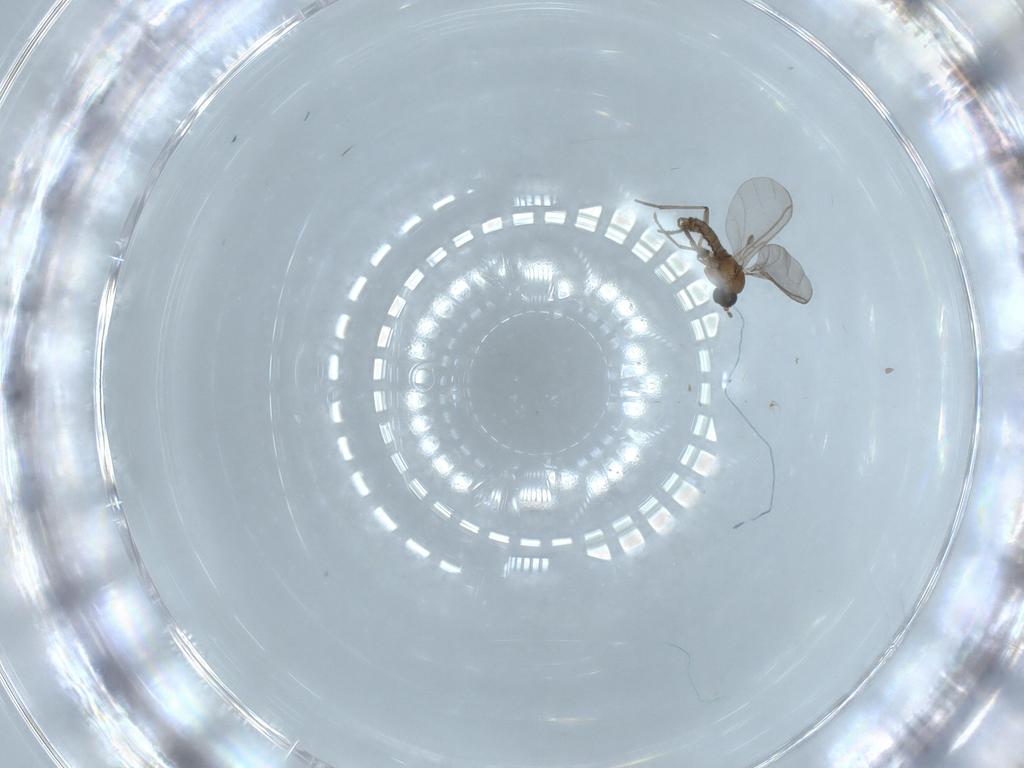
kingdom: Animalia
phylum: Arthropoda
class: Insecta
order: Diptera
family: Sciaridae
